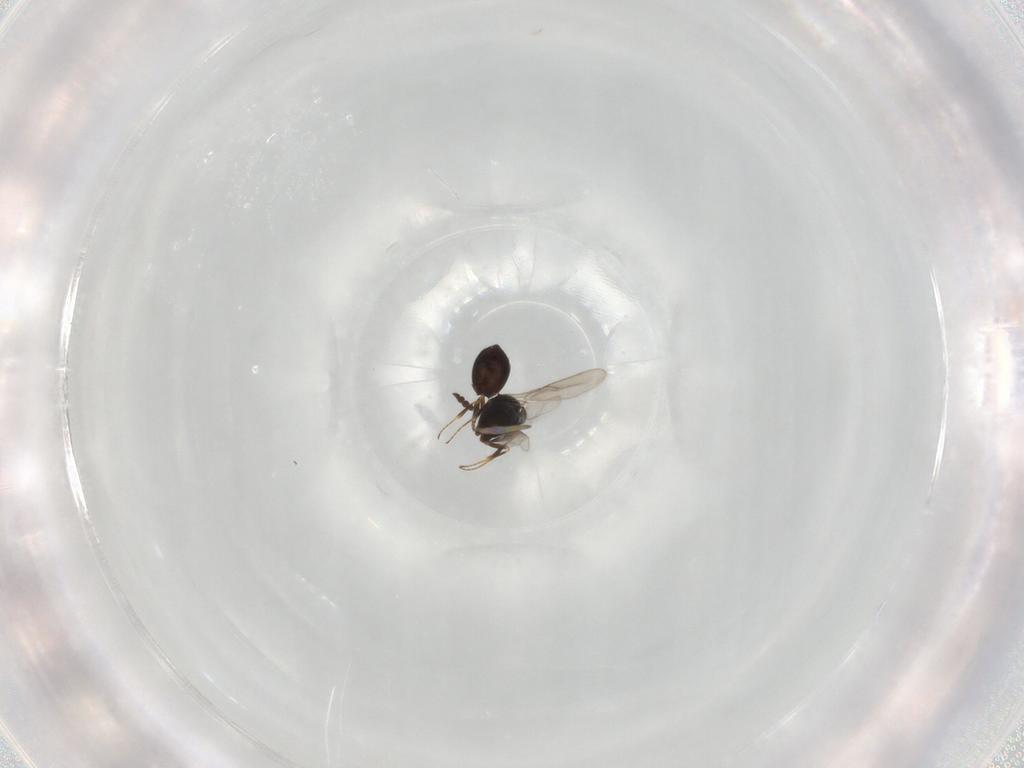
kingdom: Animalia
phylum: Arthropoda
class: Insecta
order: Hymenoptera
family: Scelionidae
